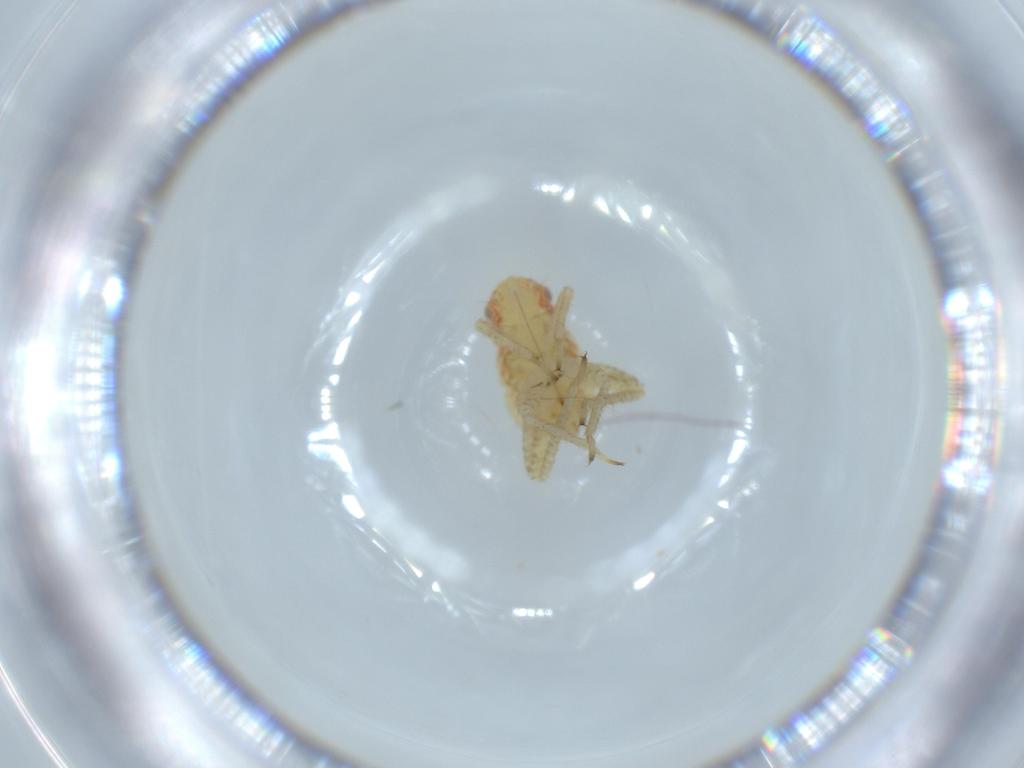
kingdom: Animalia
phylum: Arthropoda
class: Insecta
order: Hemiptera
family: Miridae
